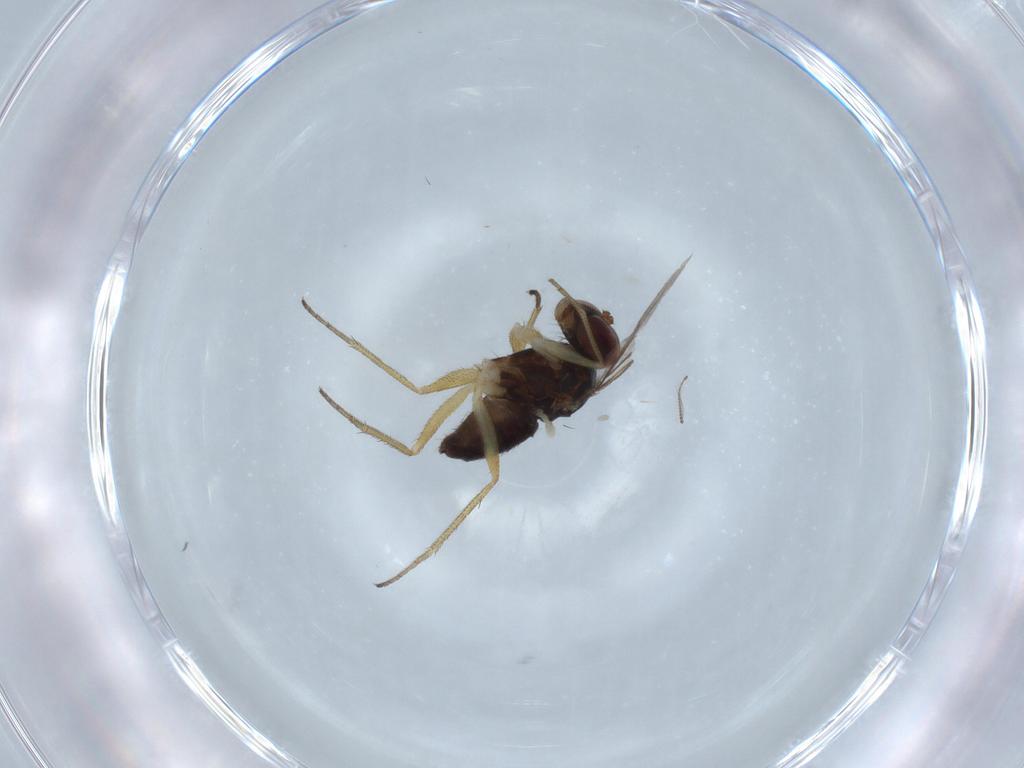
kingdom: Animalia
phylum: Arthropoda
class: Insecta
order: Diptera
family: Dolichopodidae
